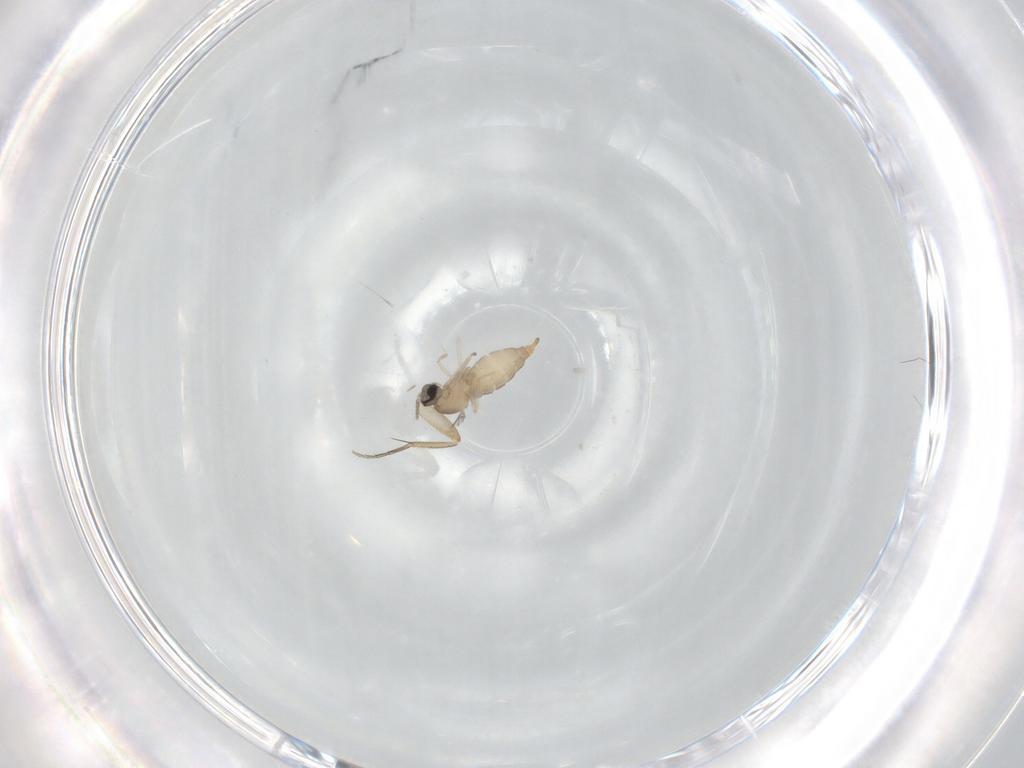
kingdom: Animalia
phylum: Arthropoda
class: Insecta
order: Diptera
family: Cecidomyiidae
